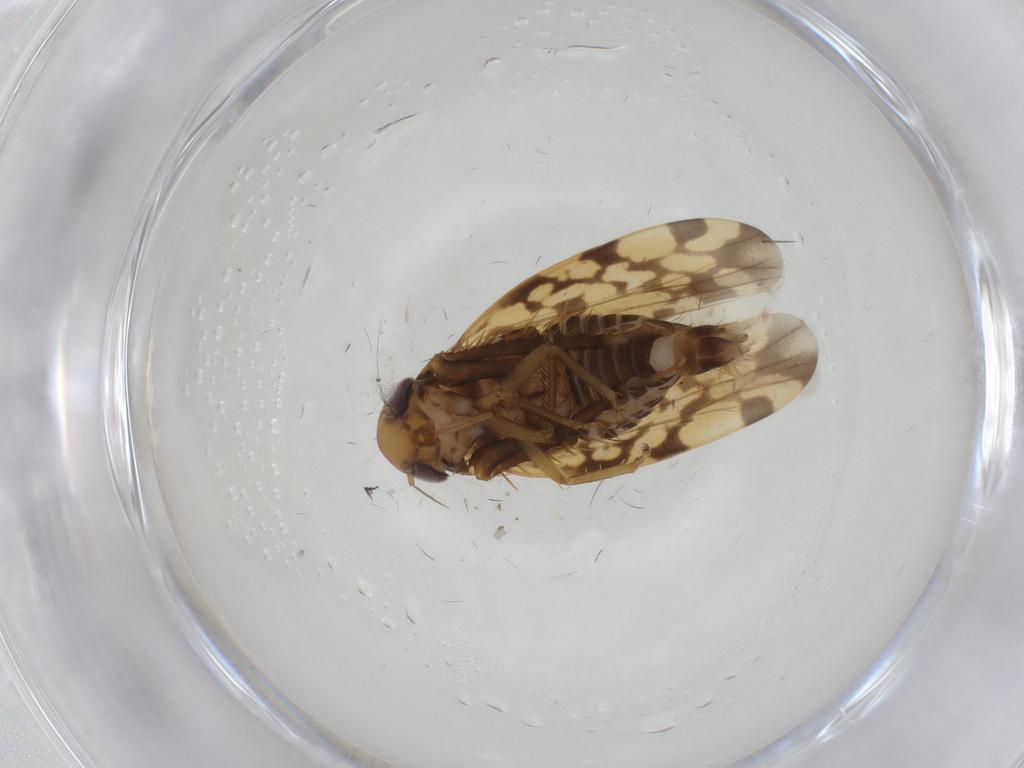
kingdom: Animalia
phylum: Arthropoda
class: Insecta
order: Hemiptera
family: Cicadellidae
